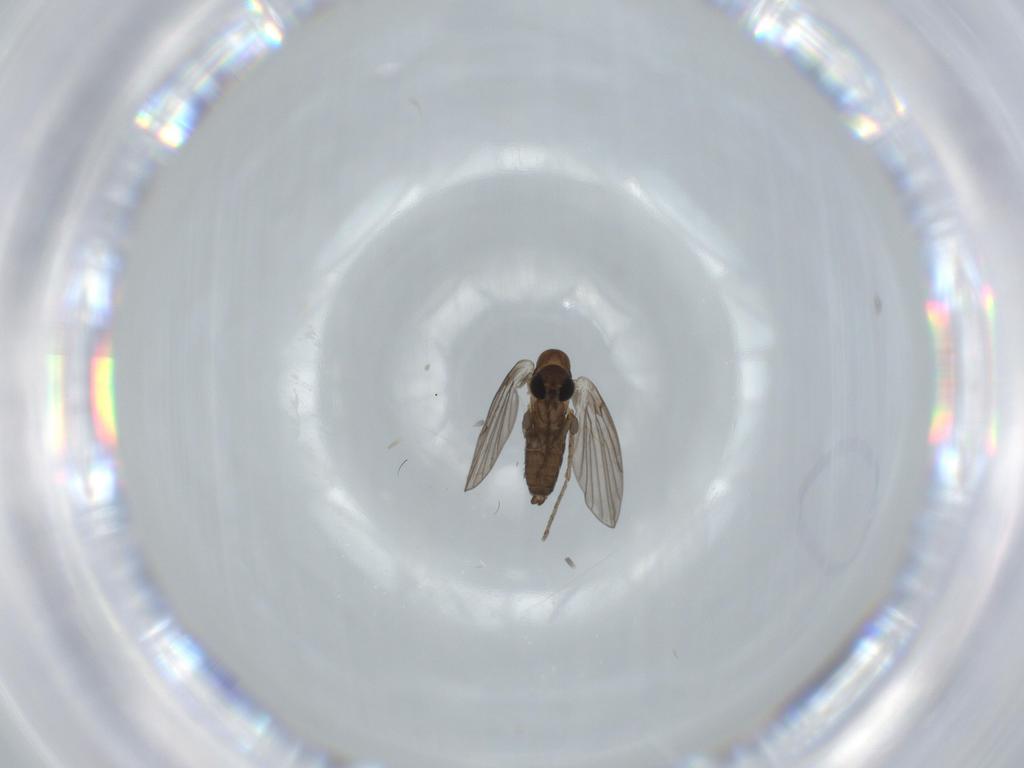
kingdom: Animalia
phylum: Arthropoda
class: Insecta
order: Diptera
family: Psychodidae
